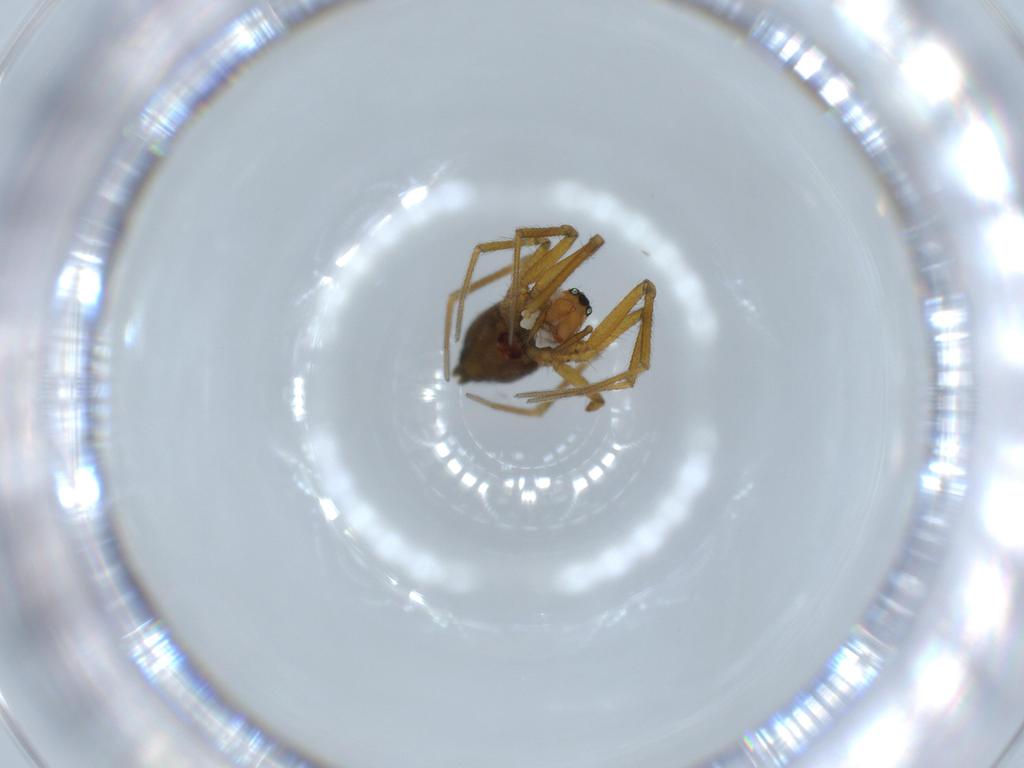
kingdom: Animalia
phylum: Arthropoda
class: Arachnida
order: Araneae
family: Linyphiidae
